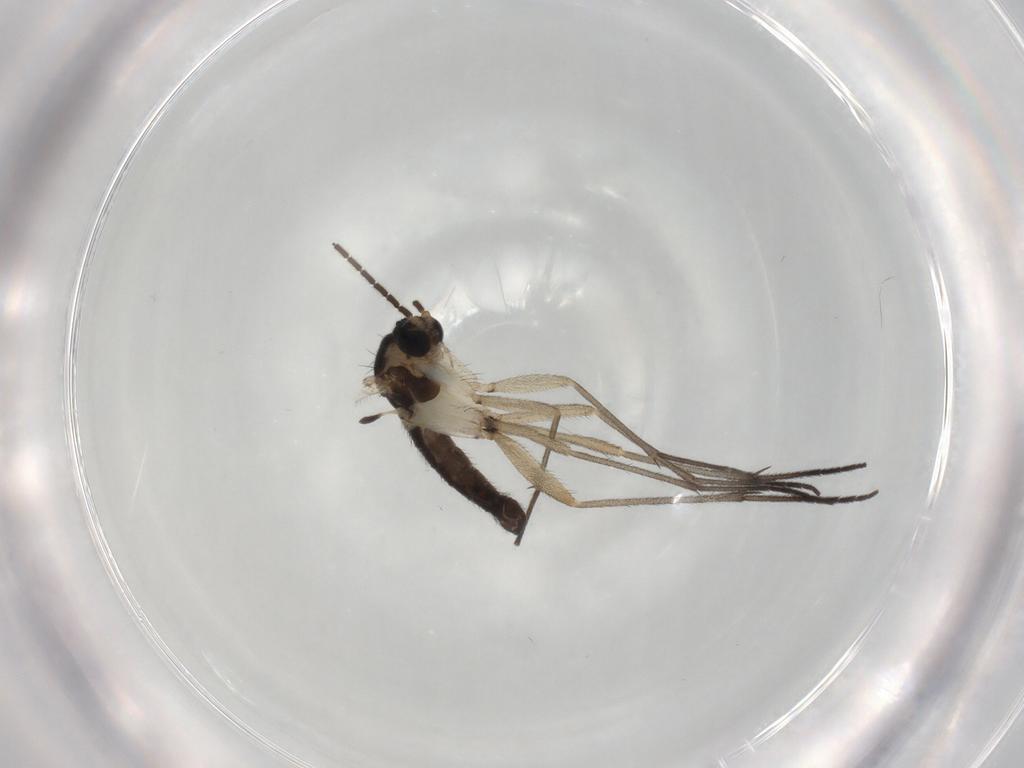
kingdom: Animalia
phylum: Arthropoda
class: Insecta
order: Diptera
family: Sciaridae
